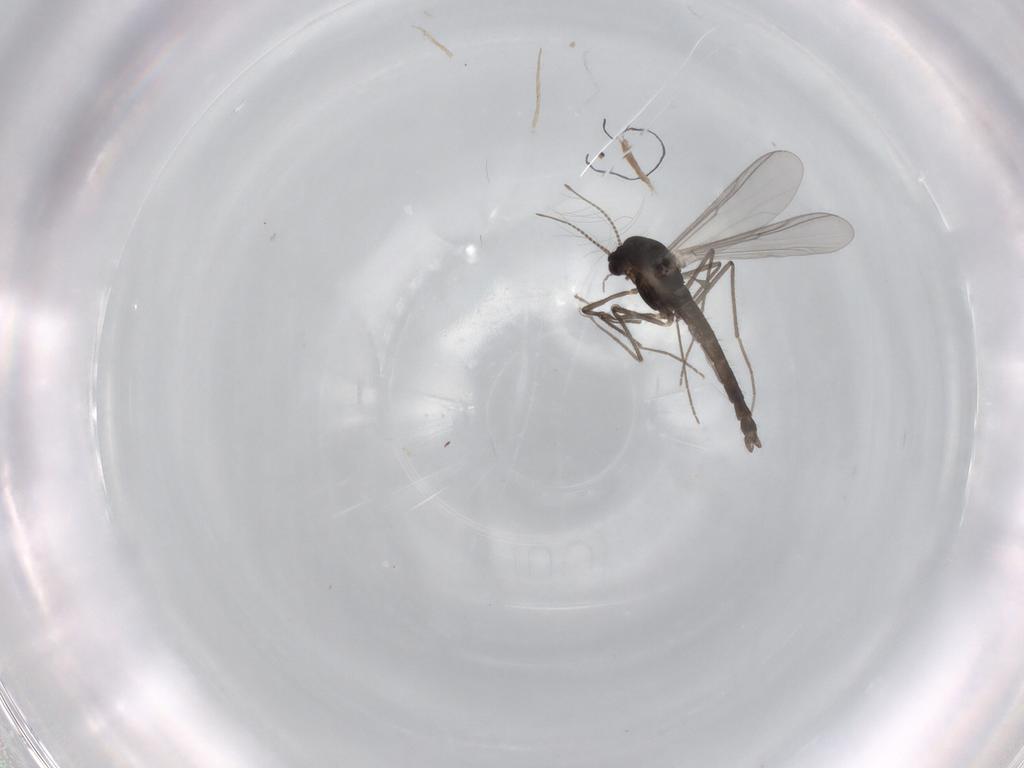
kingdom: Animalia
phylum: Arthropoda
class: Insecta
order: Diptera
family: Chironomidae
